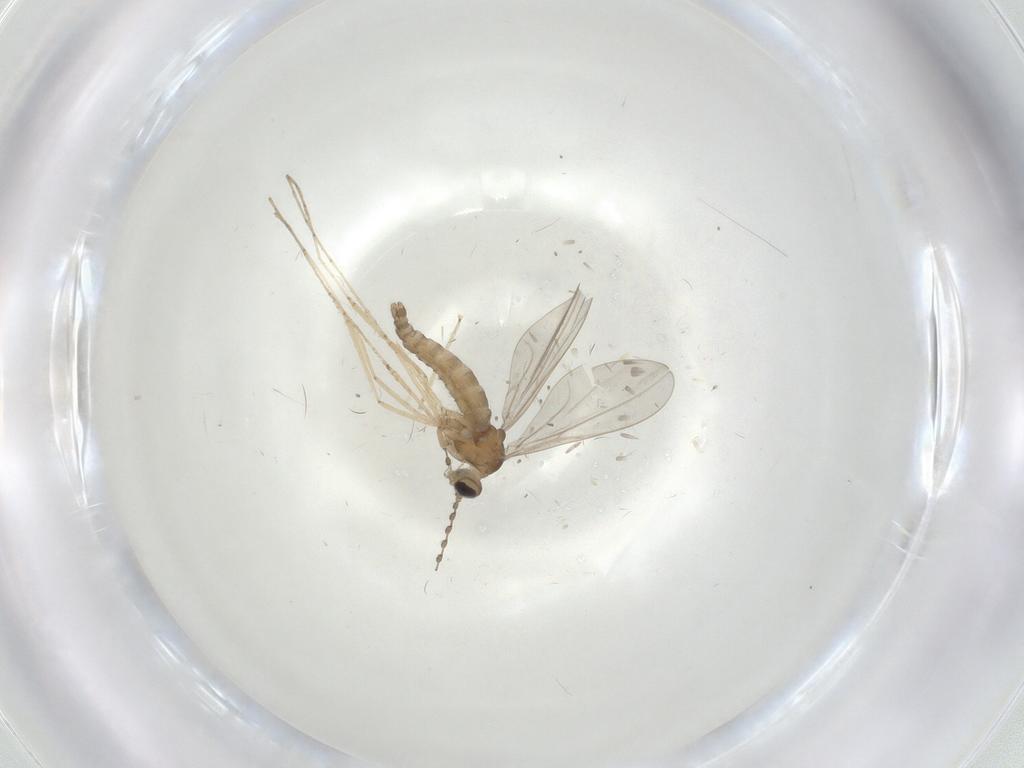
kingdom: Animalia
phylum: Arthropoda
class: Insecta
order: Diptera
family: Cecidomyiidae
